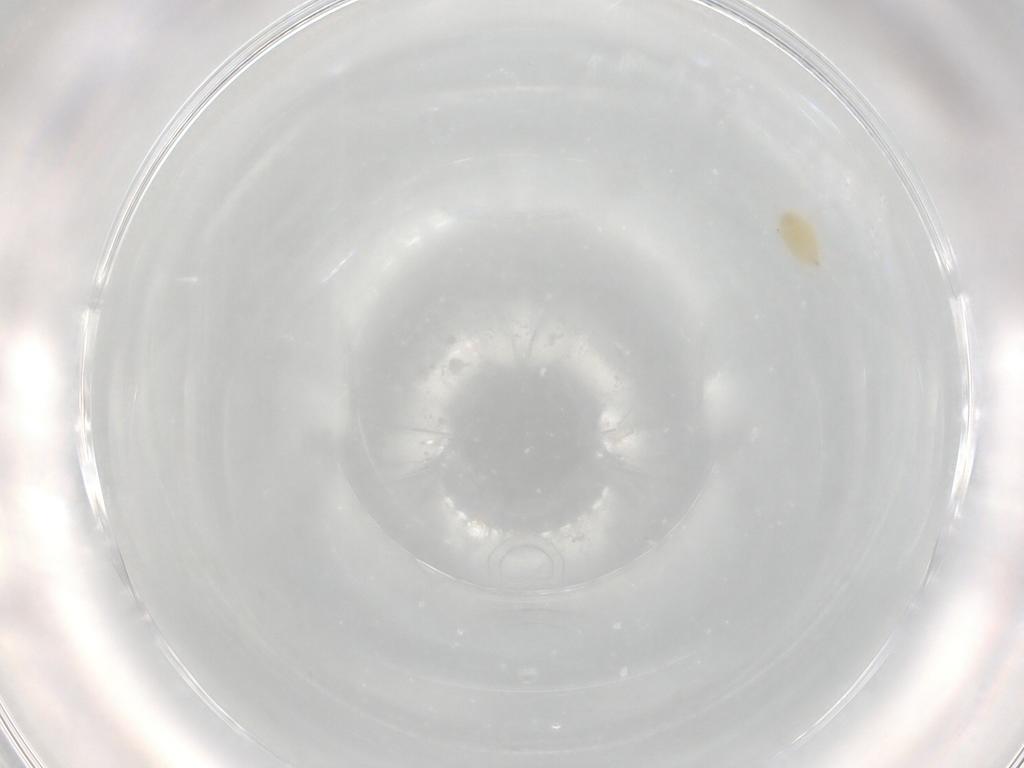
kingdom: Animalia
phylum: Arthropoda
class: Arachnida
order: Trombidiformes
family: Tetranychidae
